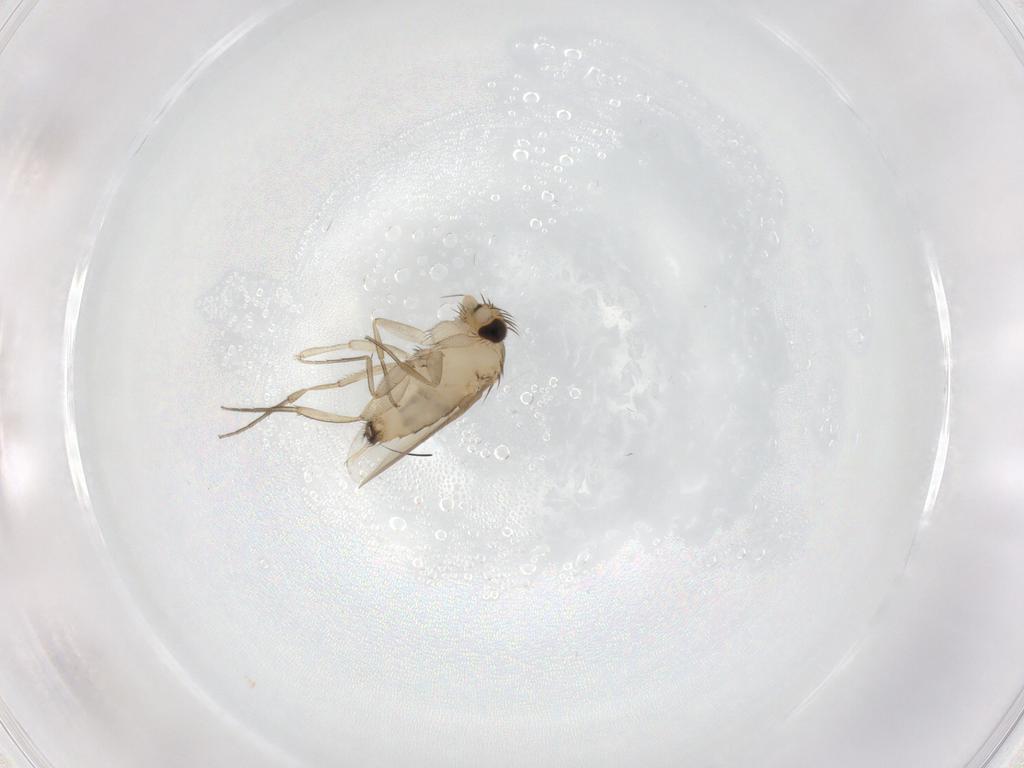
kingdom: Animalia
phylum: Arthropoda
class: Insecta
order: Diptera
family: Phoridae
